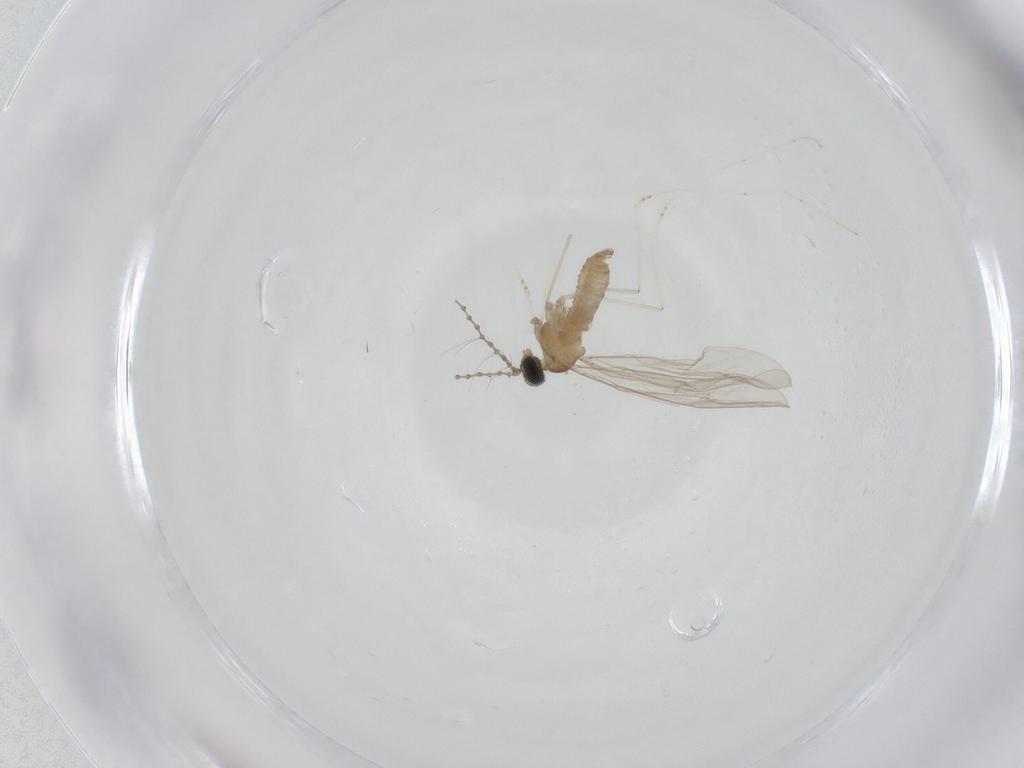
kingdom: Animalia
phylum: Arthropoda
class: Insecta
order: Diptera
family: Cecidomyiidae
